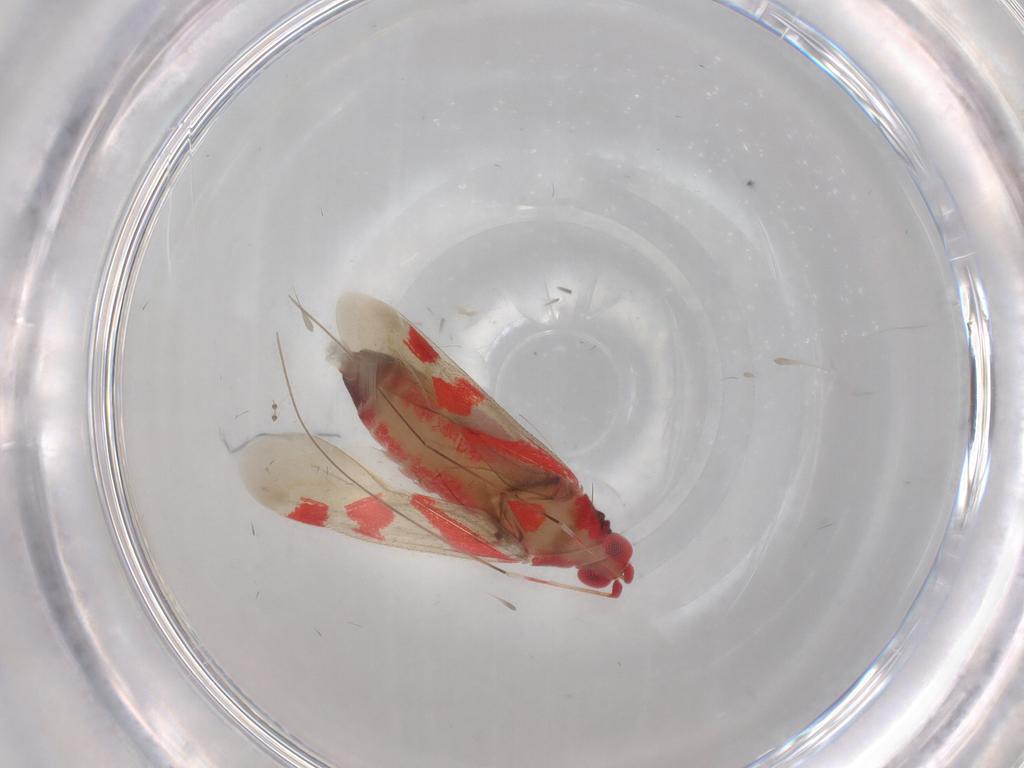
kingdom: Animalia
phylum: Arthropoda
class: Insecta
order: Hemiptera
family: Miridae
